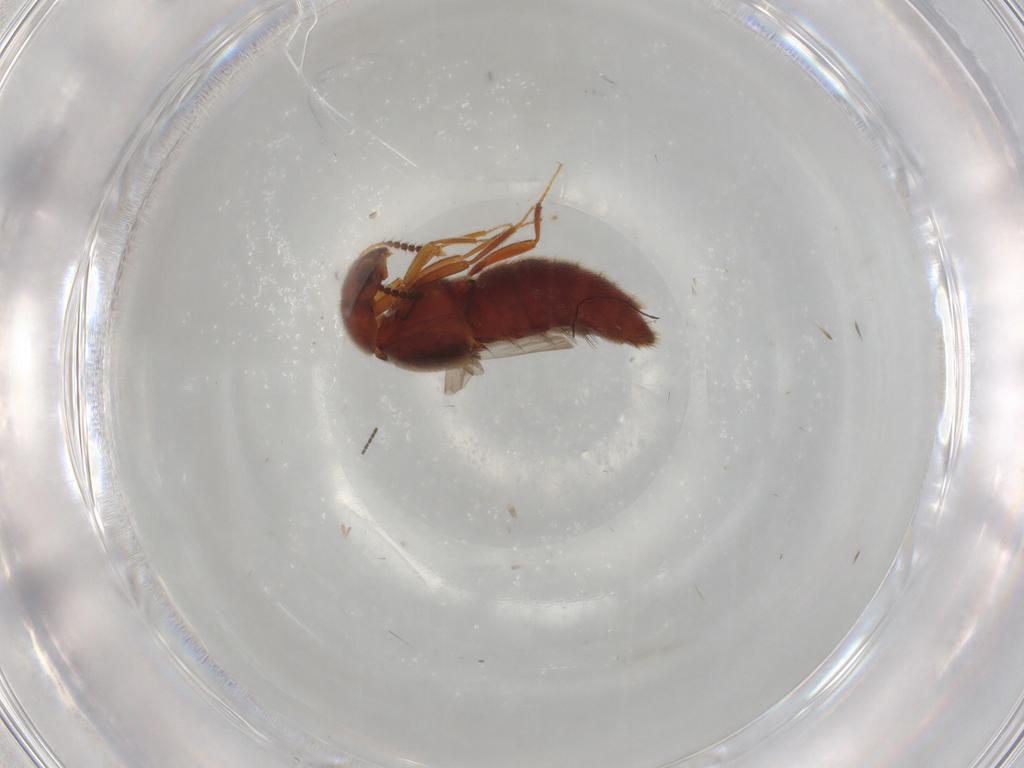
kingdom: Animalia
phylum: Arthropoda
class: Insecta
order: Coleoptera
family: Staphylinidae
